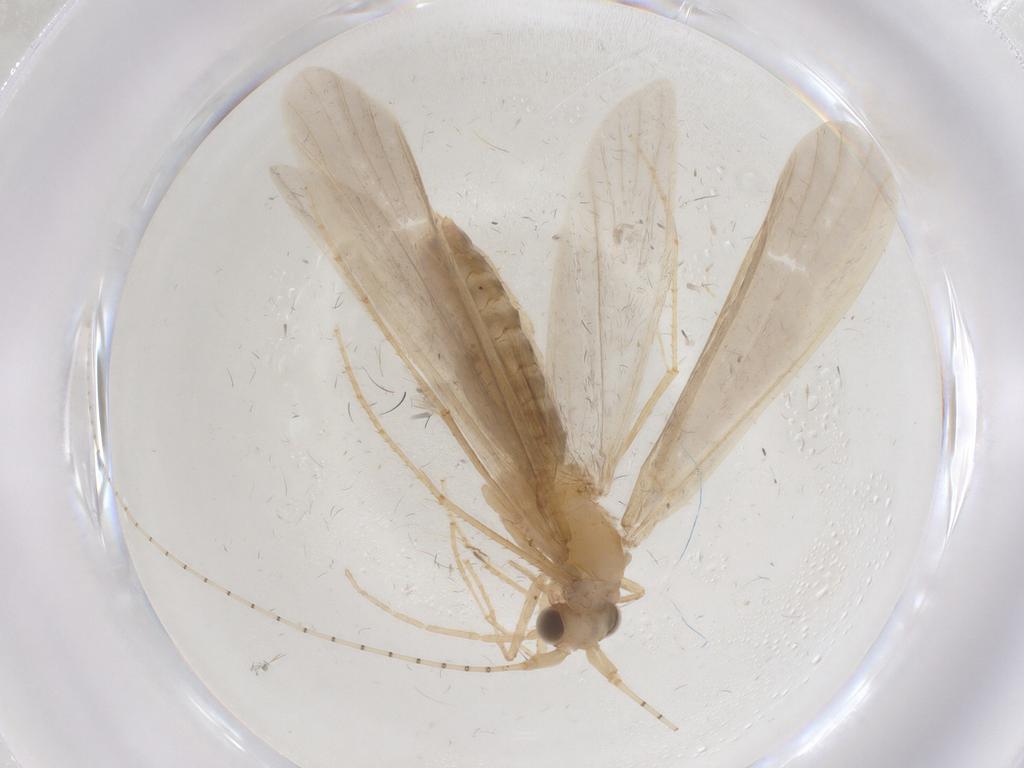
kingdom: Animalia
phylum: Arthropoda
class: Insecta
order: Trichoptera
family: Leptoceridae
